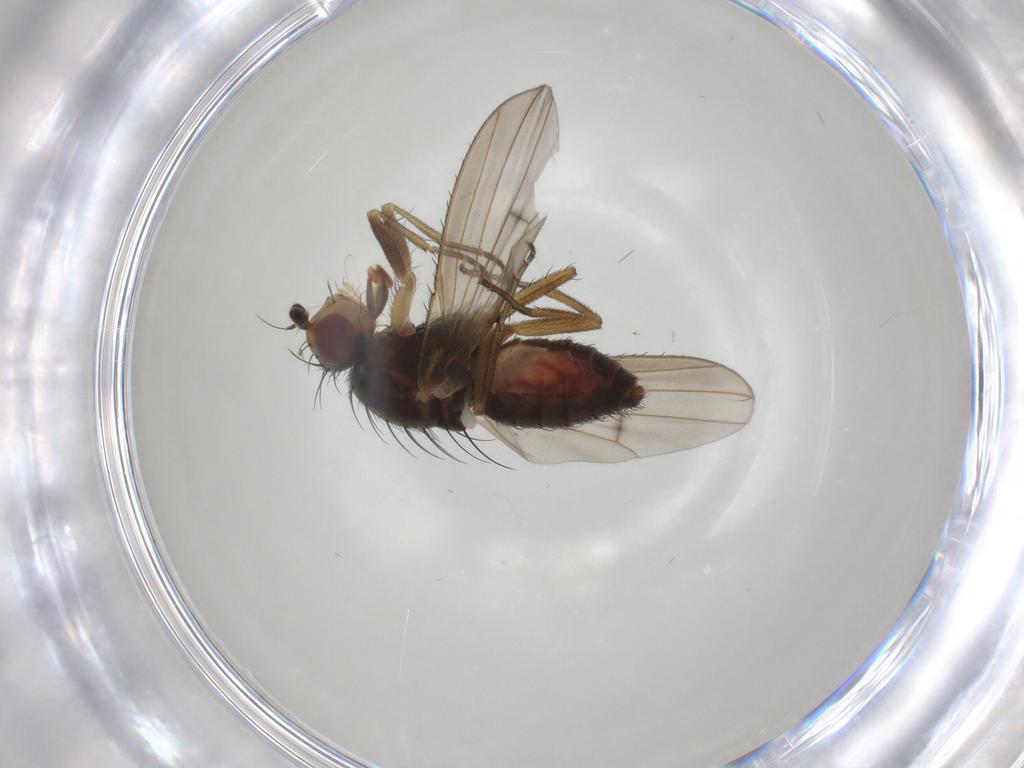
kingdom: Animalia
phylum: Arthropoda
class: Insecta
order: Diptera
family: Heleomyzidae
